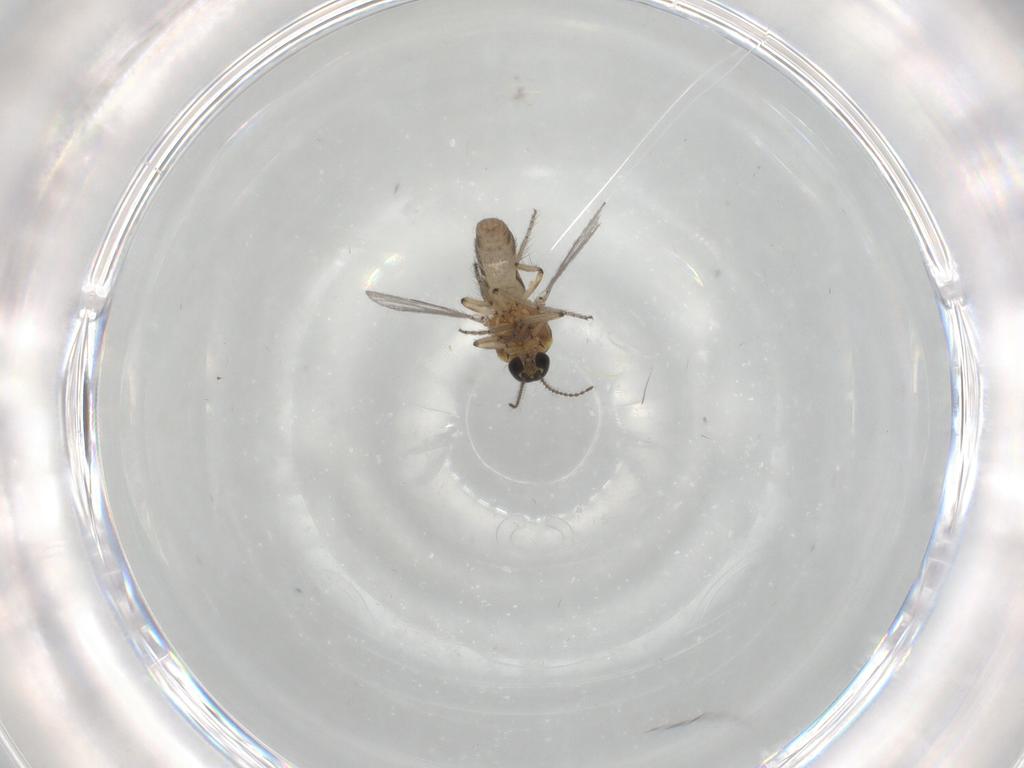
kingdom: Animalia
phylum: Arthropoda
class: Insecta
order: Diptera
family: Ceratopogonidae
